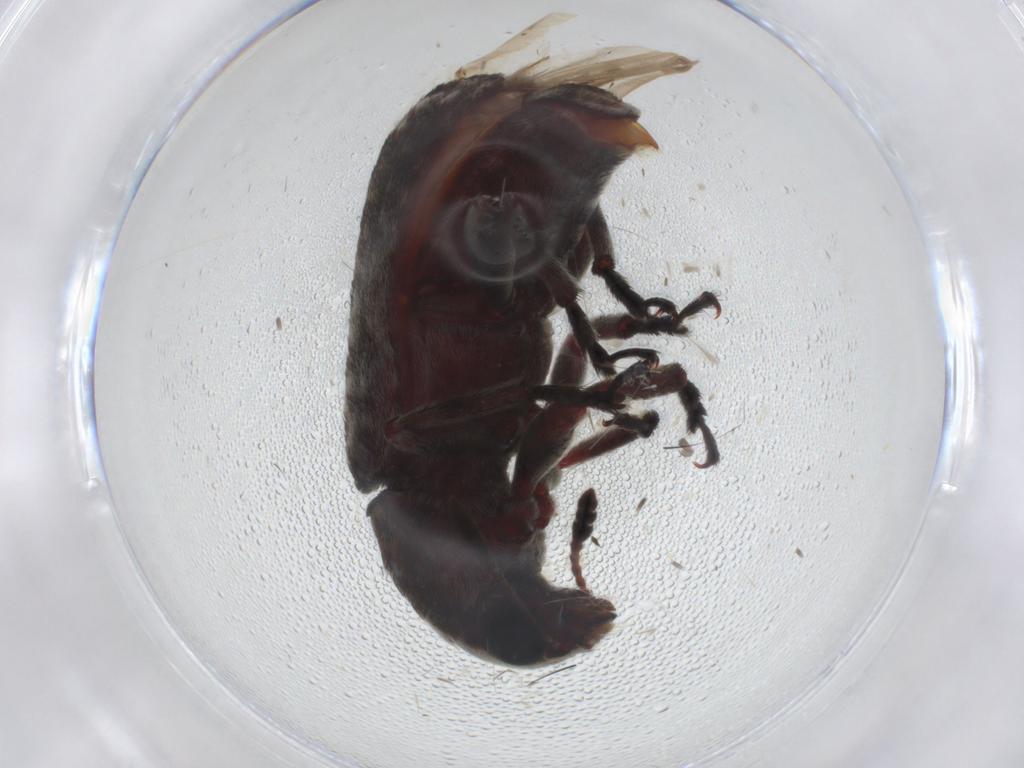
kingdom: Animalia
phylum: Arthropoda
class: Insecta
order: Coleoptera
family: Anthribidae
